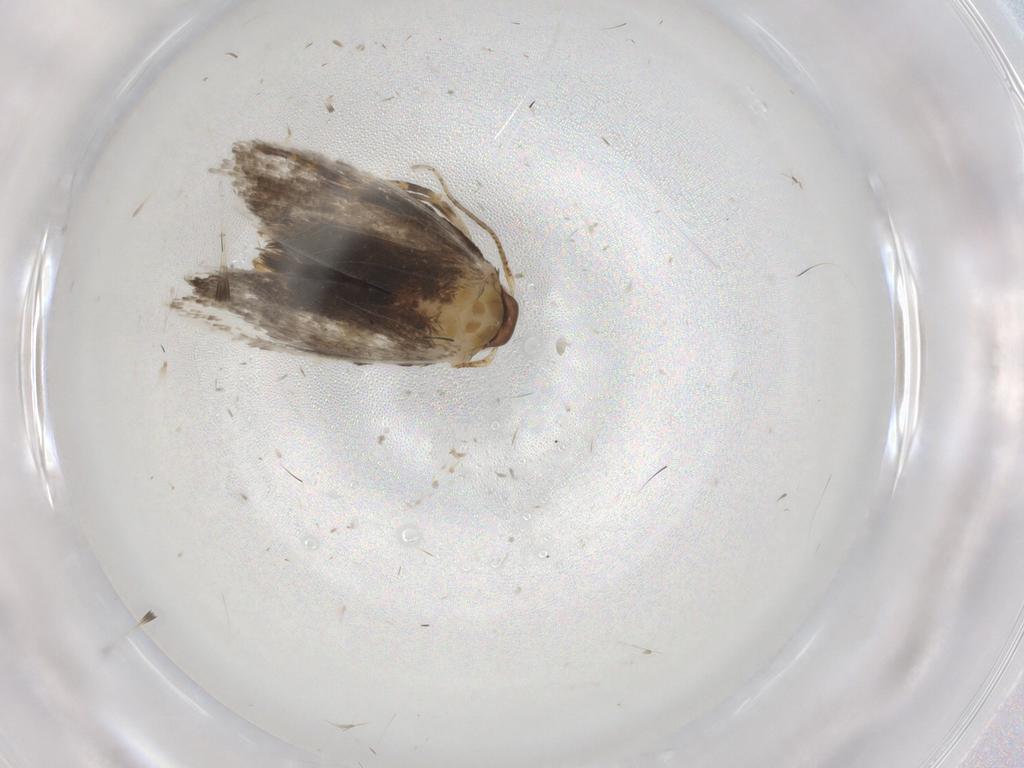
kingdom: Animalia
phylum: Arthropoda
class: Insecta
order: Lepidoptera
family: Oecophoridae
